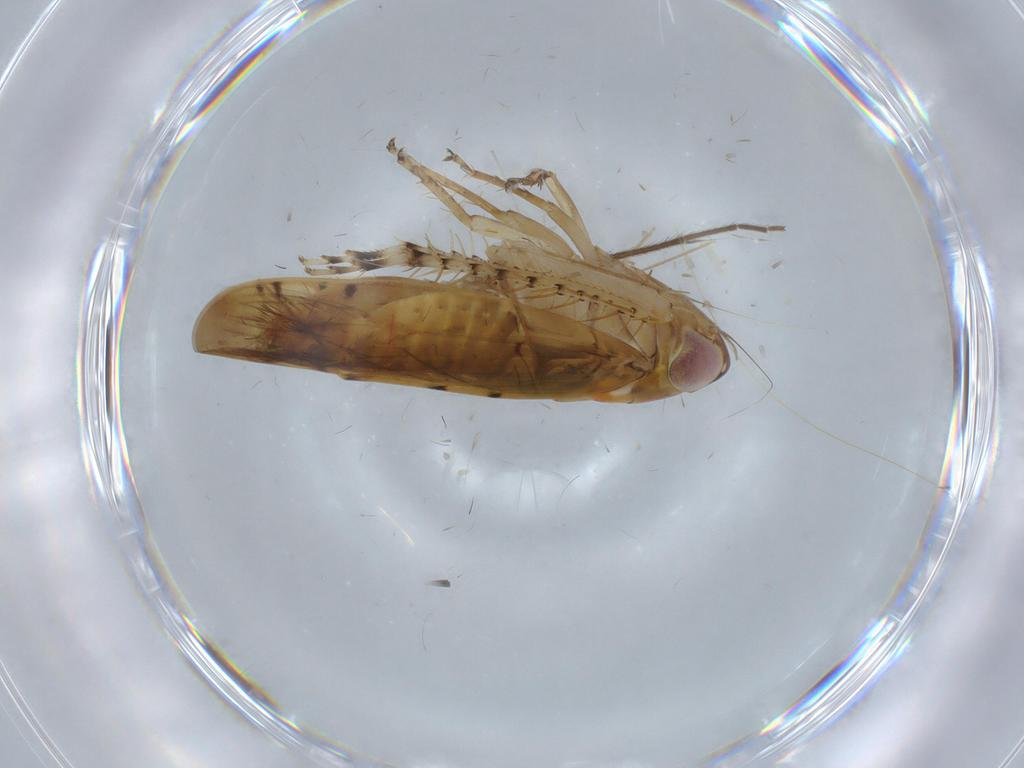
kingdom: Animalia
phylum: Arthropoda
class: Insecta
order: Hemiptera
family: Cicadellidae
